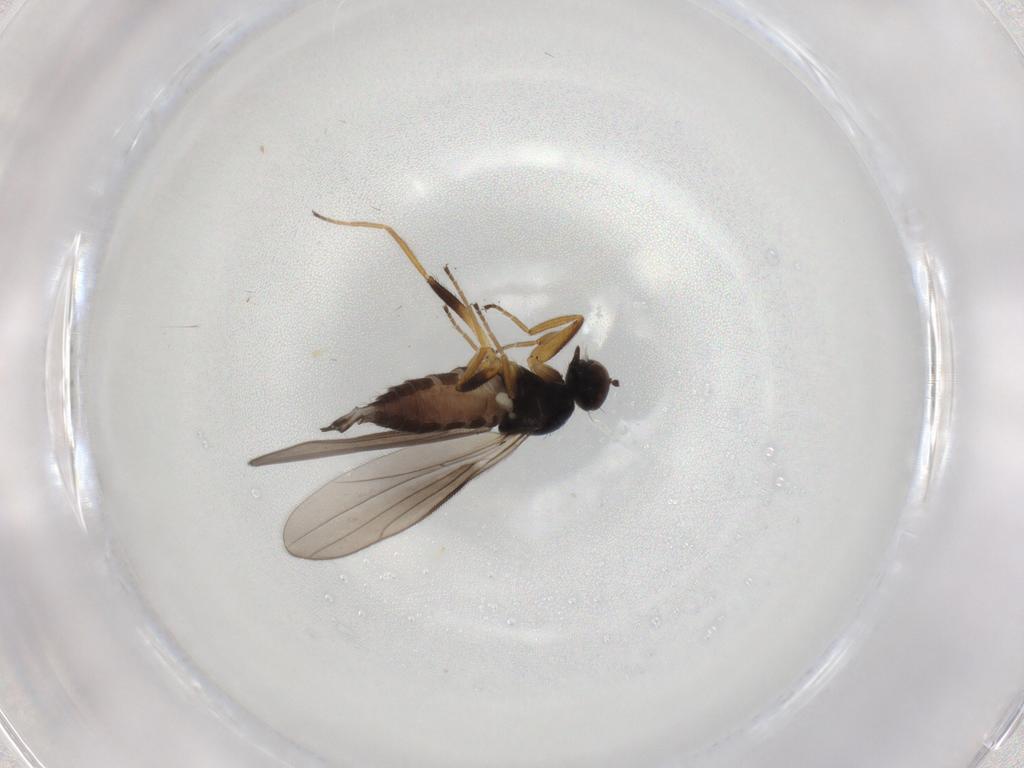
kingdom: Animalia
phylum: Arthropoda
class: Insecta
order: Diptera
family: Hybotidae
